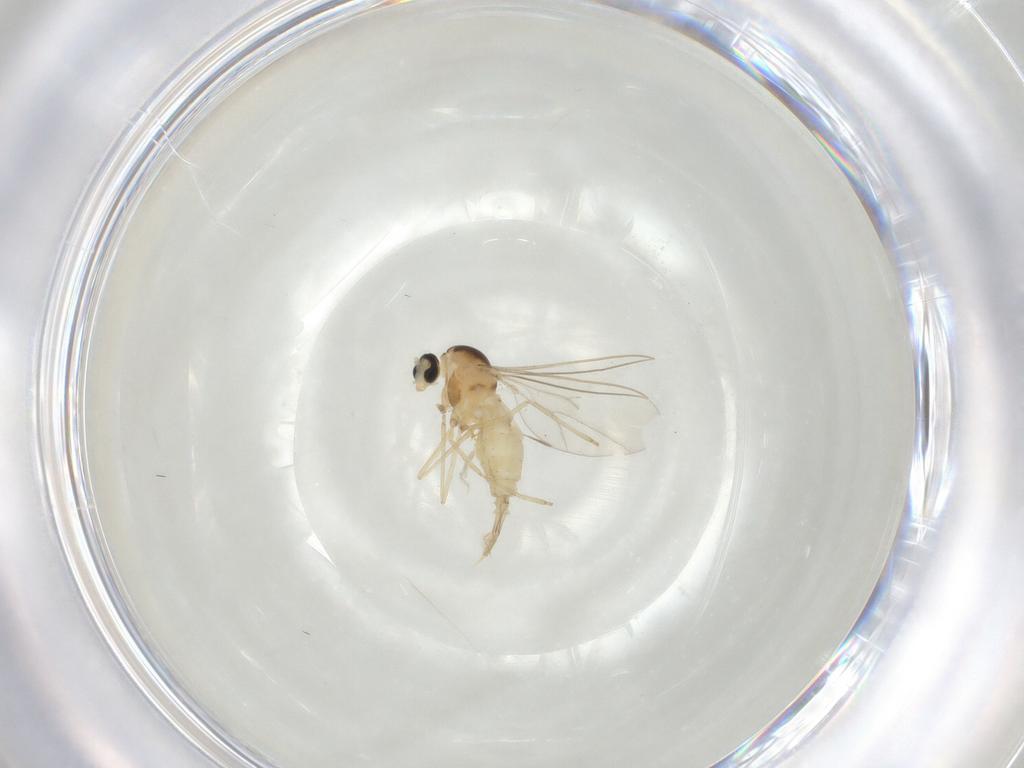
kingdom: Animalia
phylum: Arthropoda
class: Insecta
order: Diptera
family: Cecidomyiidae
